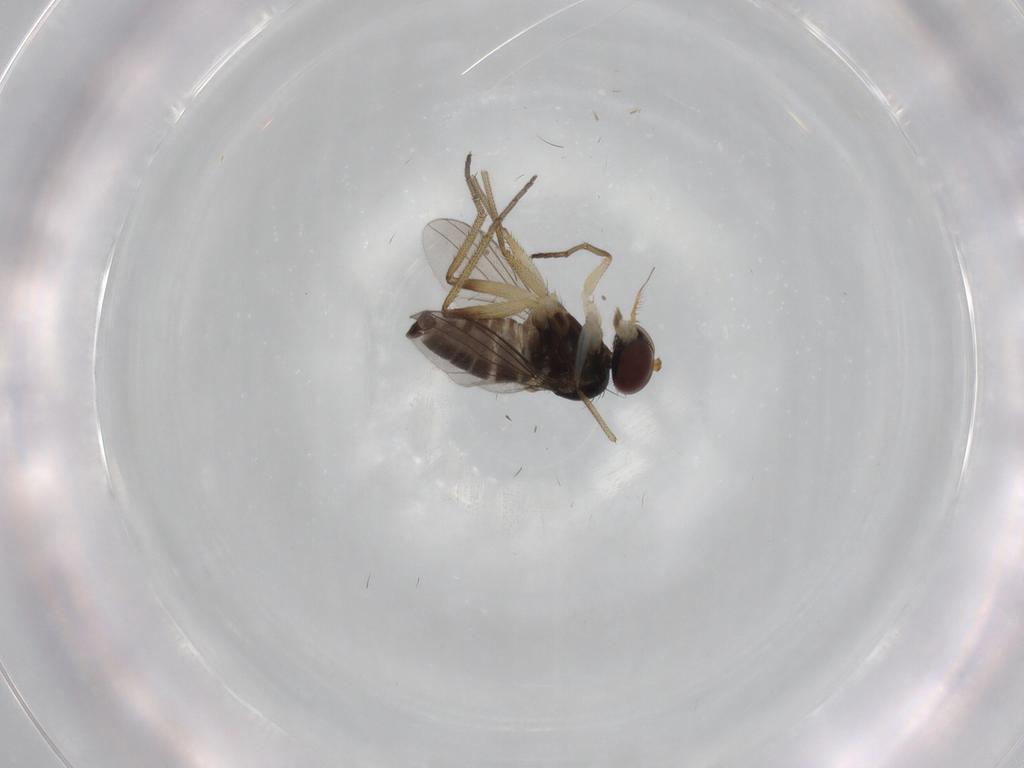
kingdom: Animalia
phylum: Arthropoda
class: Insecta
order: Diptera
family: Dolichopodidae
